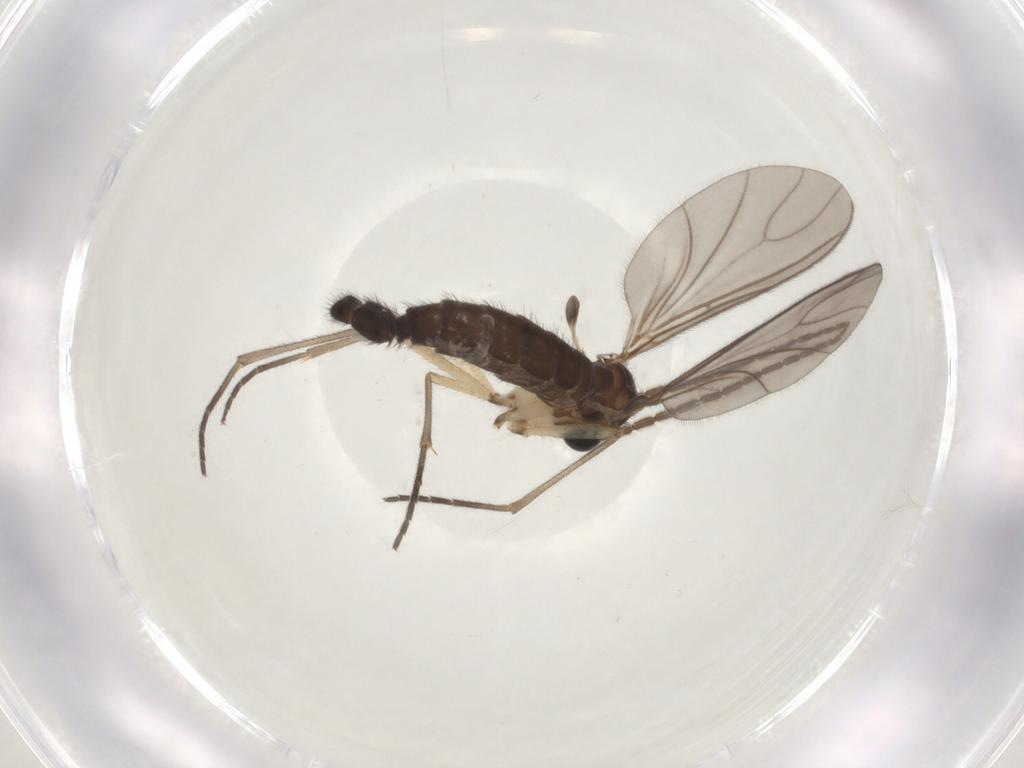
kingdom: Animalia
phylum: Arthropoda
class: Insecta
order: Diptera
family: Sciaridae
